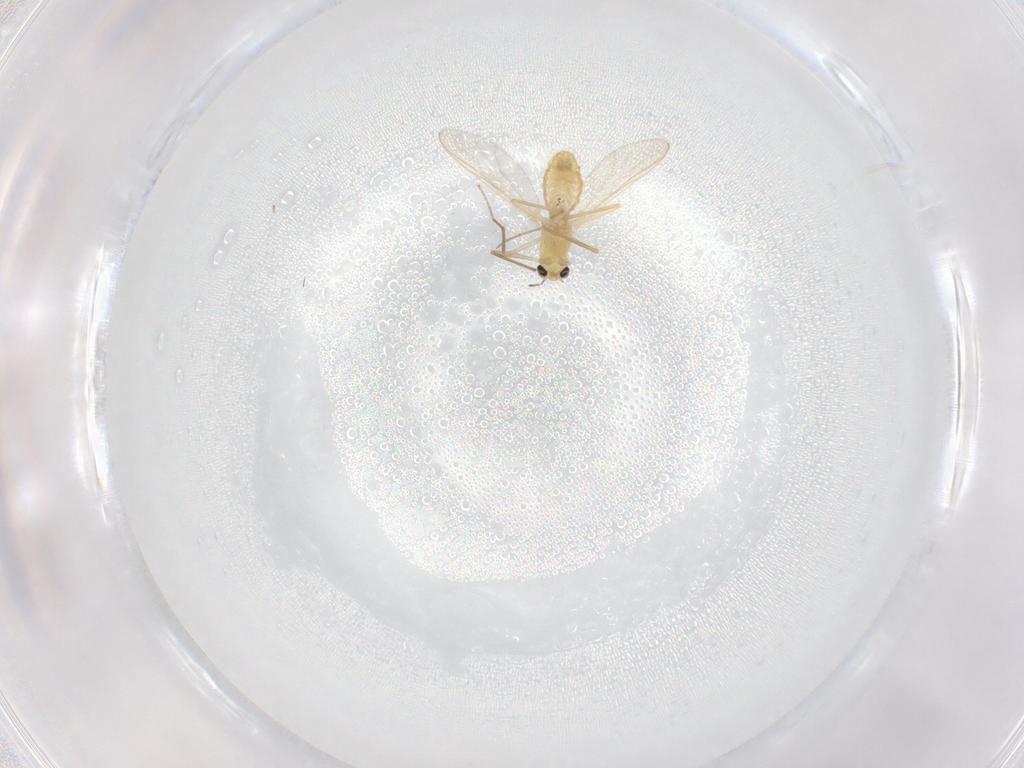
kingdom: Animalia
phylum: Arthropoda
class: Insecta
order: Diptera
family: Chironomidae
